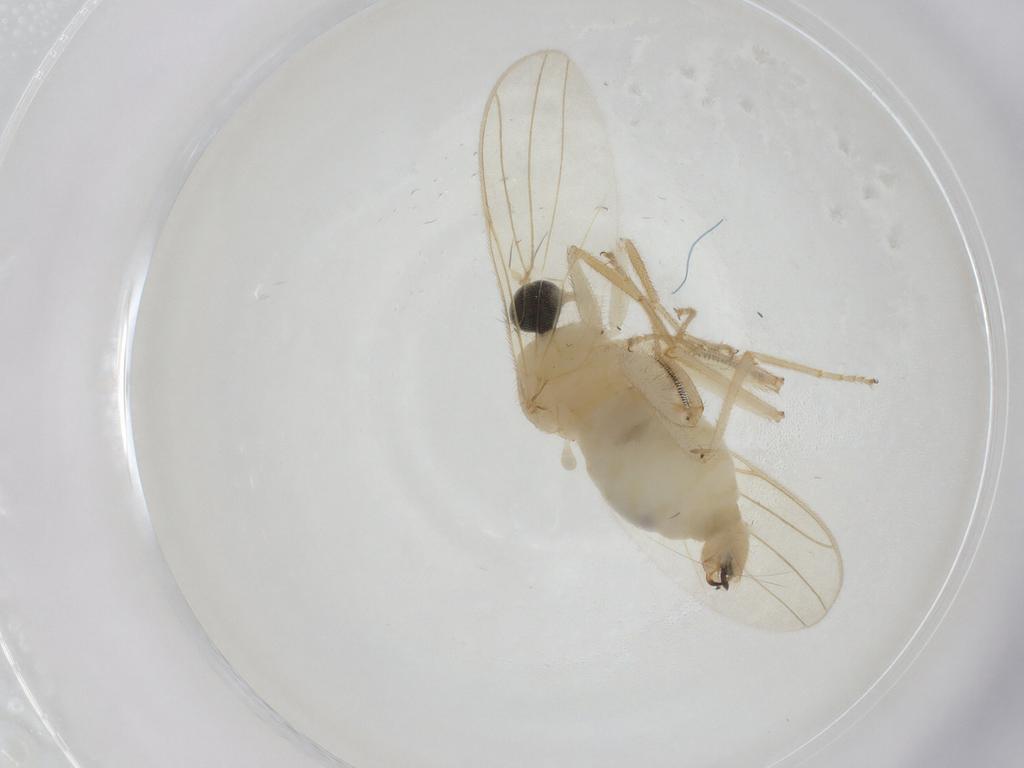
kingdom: Animalia
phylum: Arthropoda
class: Insecta
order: Diptera
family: Hybotidae
